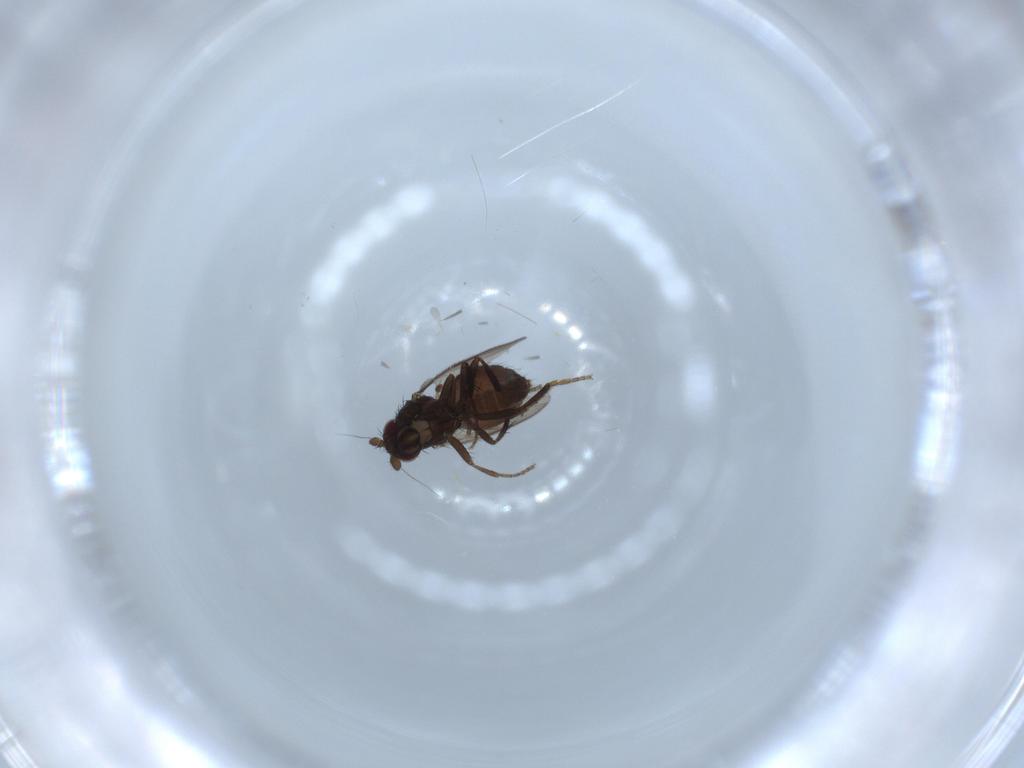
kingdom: Animalia
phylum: Arthropoda
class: Insecta
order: Diptera
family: Sphaeroceridae
